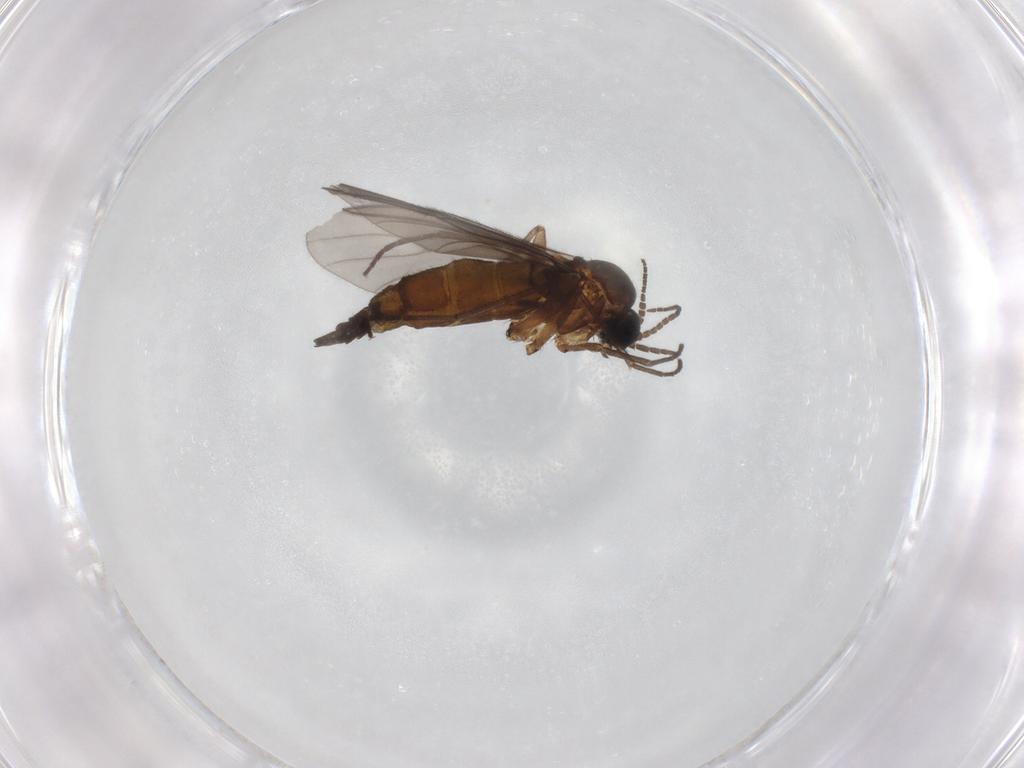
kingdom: Animalia
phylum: Arthropoda
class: Insecta
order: Diptera
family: Sciaridae
